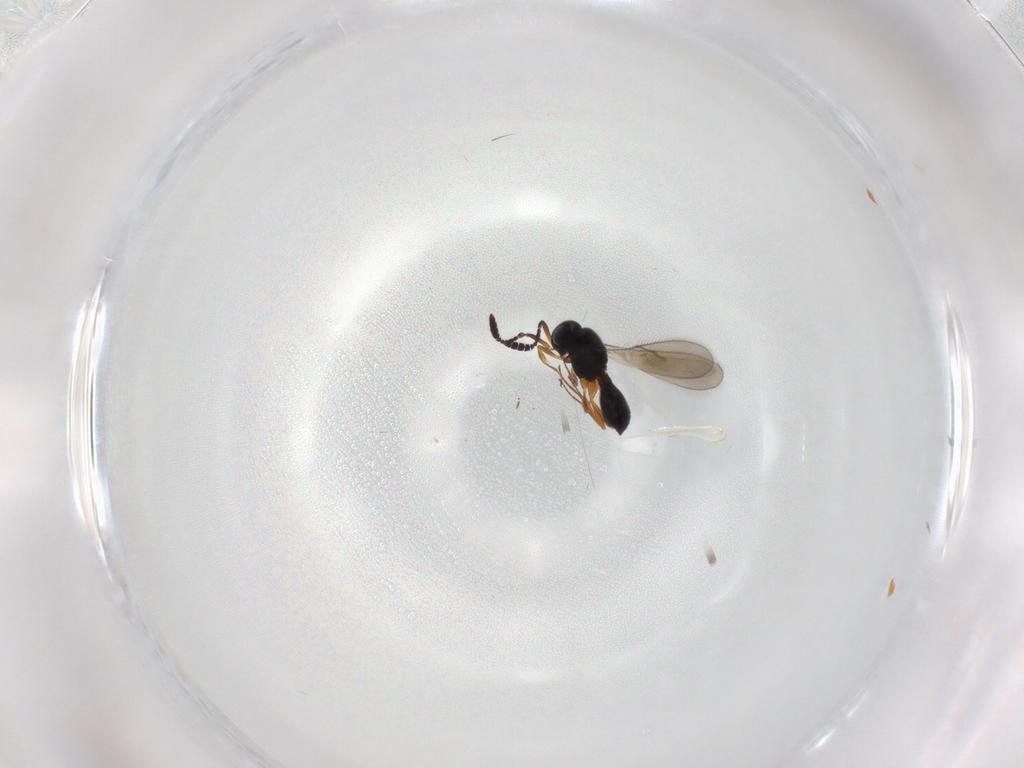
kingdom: Animalia
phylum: Arthropoda
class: Insecta
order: Hymenoptera
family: Scelionidae
